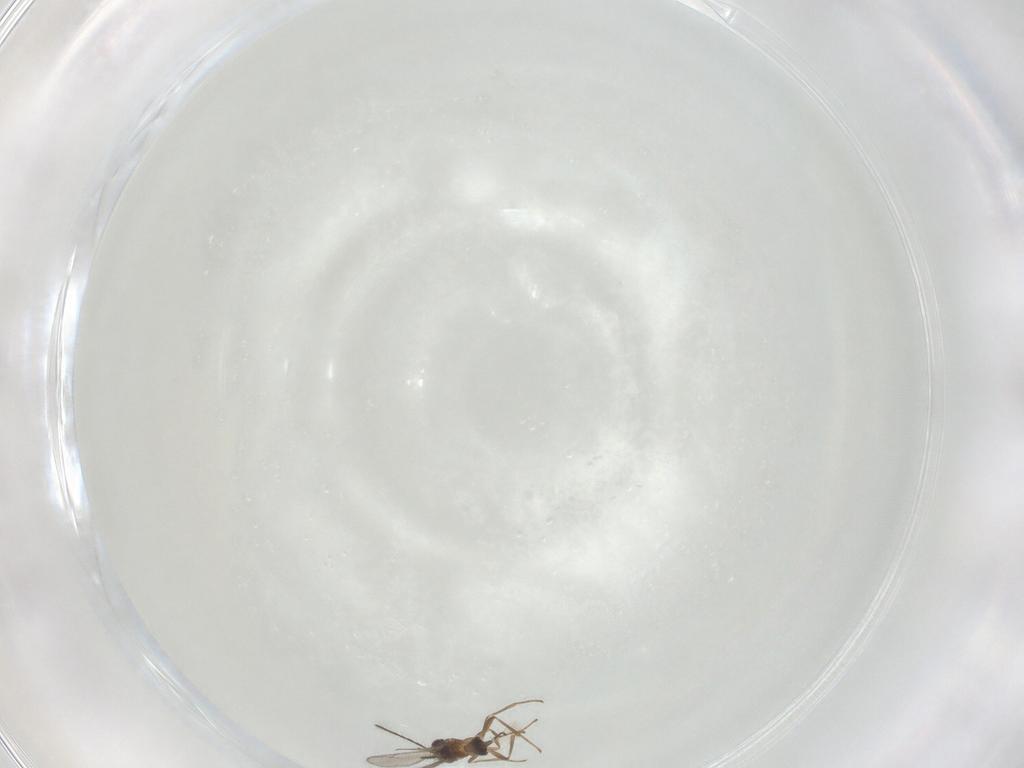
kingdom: Animalia
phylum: Arthropoda
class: Insecta
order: Hymenoptera
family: Eupelmidae
